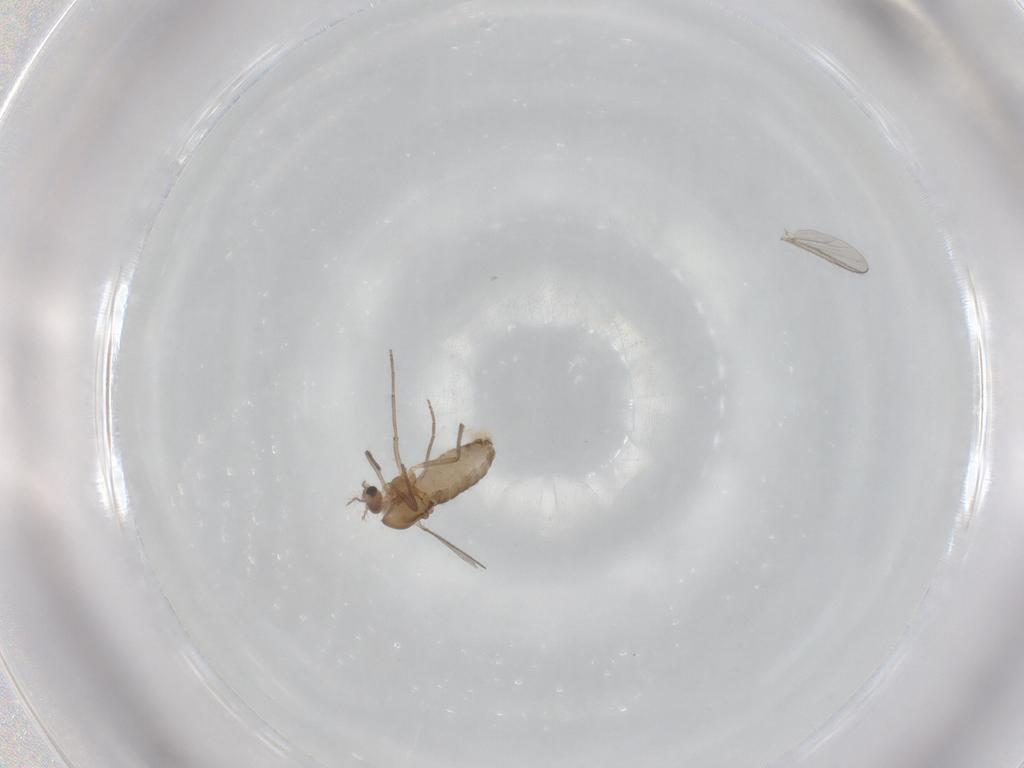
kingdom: Animalia
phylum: Arthropoda
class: Insecta
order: Diptera
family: Chironomidae
